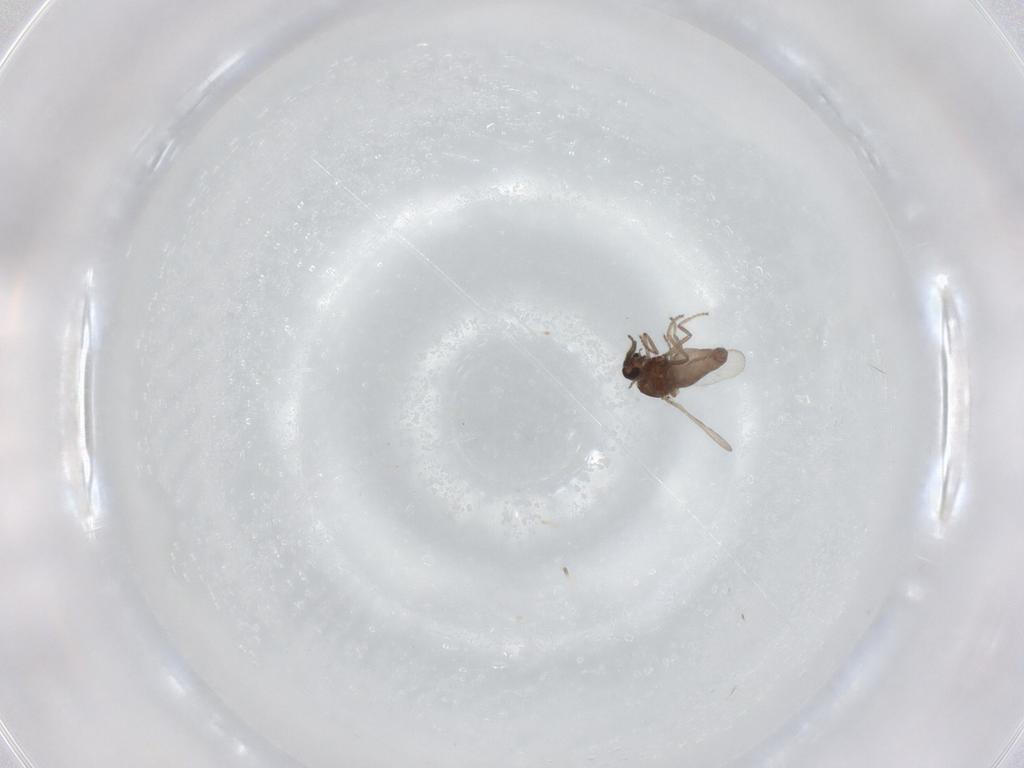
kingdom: Animalia
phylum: Arthropoda
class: Insecta
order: Diptera
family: Ceratopogonidae
